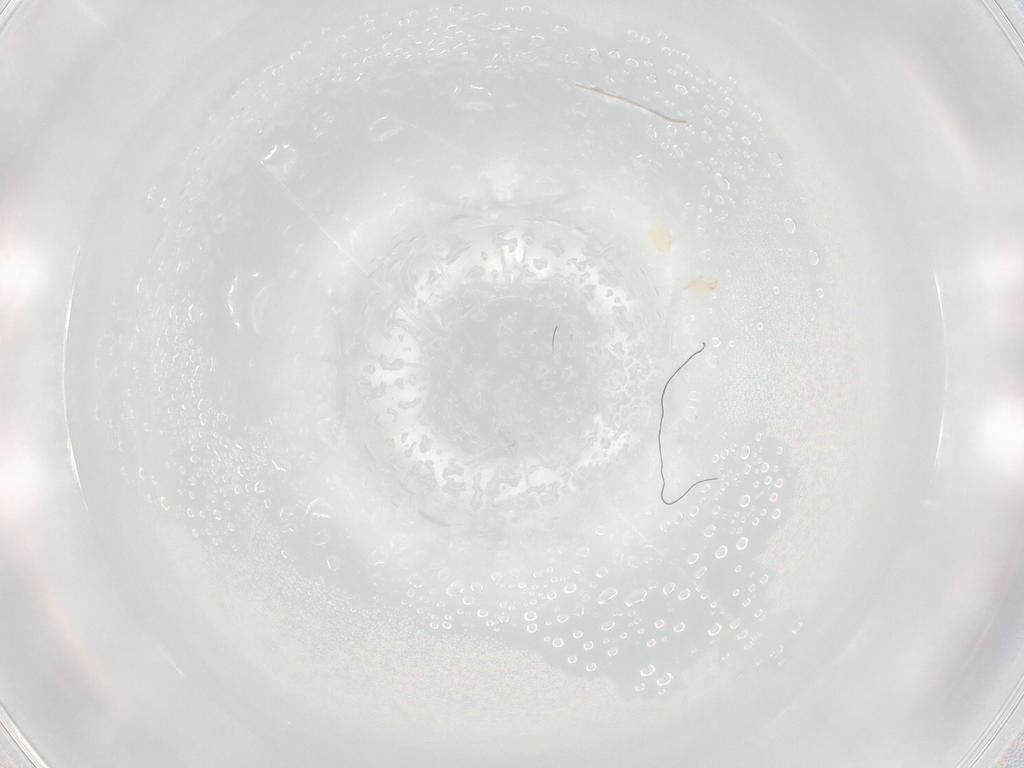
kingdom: Animalia
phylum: Arthropoda
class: Insecta
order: Psocodea
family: Peripsocidae
